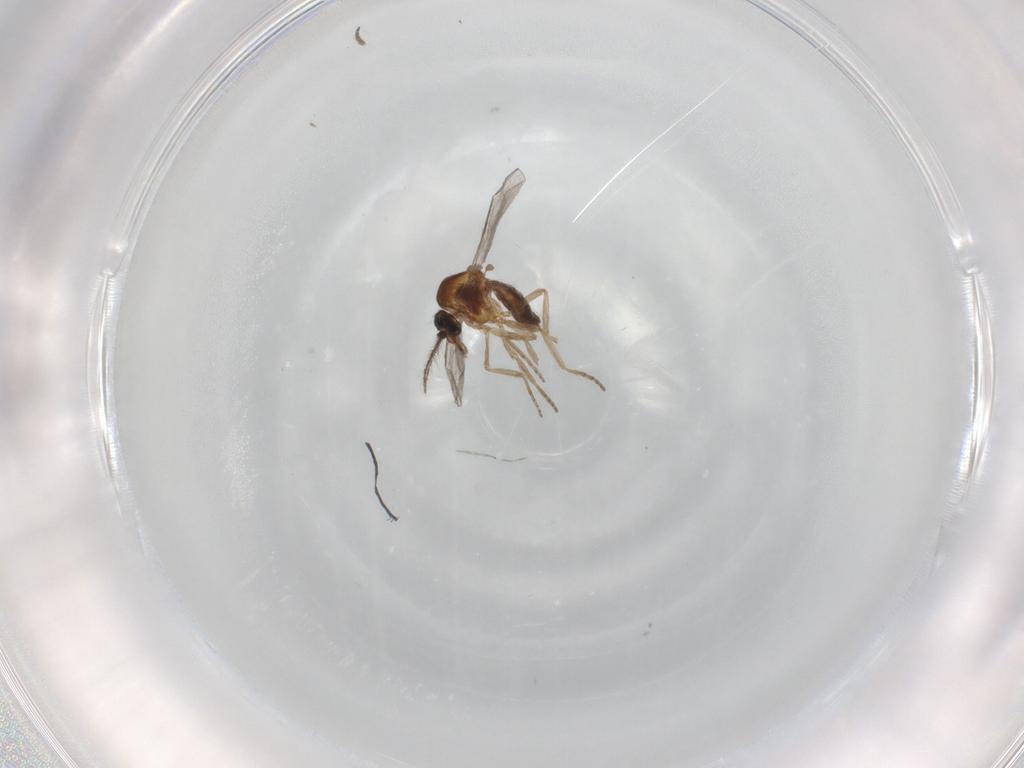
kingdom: Animalia
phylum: Arthropoda
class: Insecta
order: Diptera
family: Cecidomyiidae
